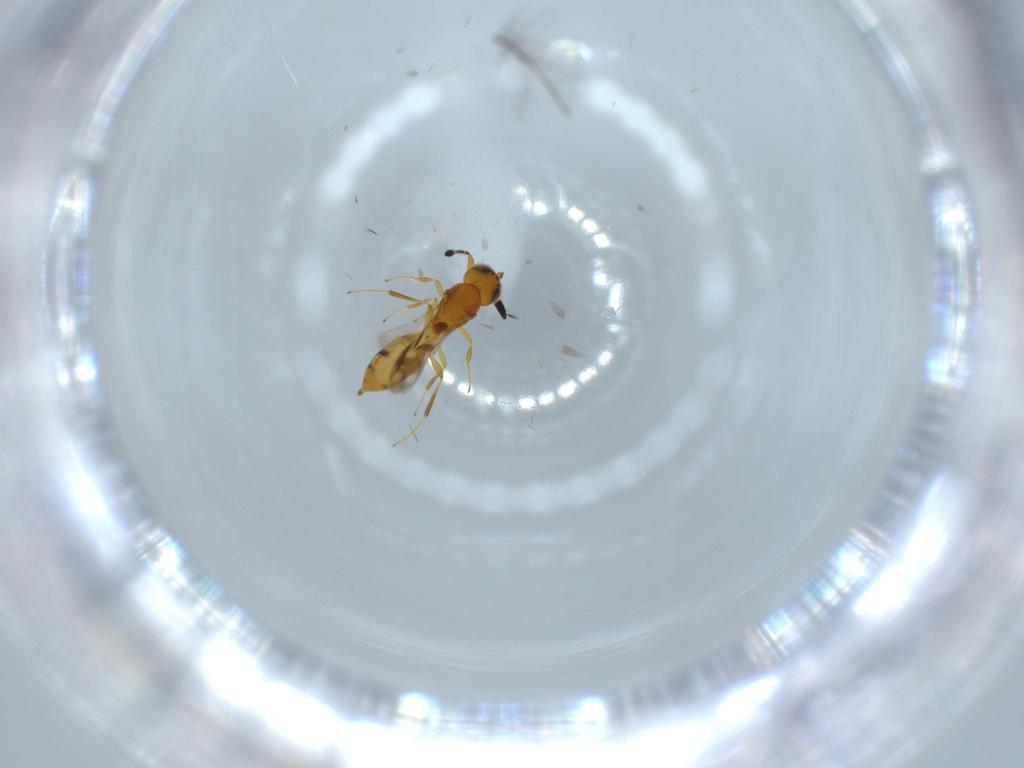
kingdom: Animalia
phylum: Arthropoda
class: Insecta
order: Hymenoptera
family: Scelionidae
